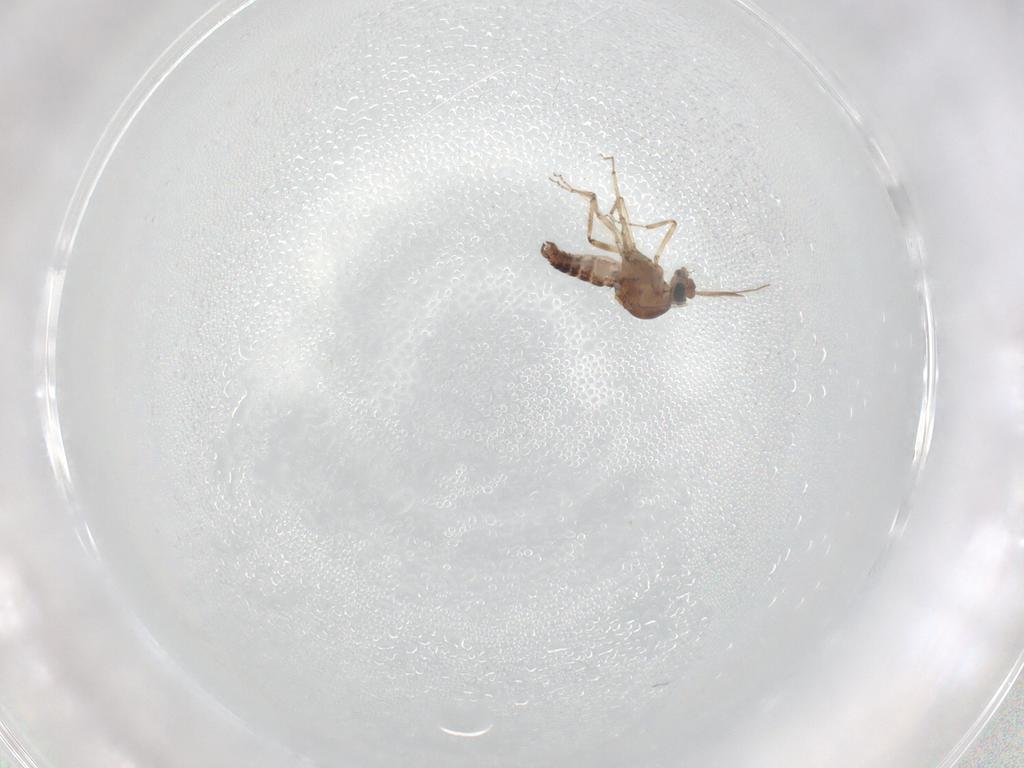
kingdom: Animalia
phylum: Arthropoda
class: Insecta
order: Diptera
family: Ceratopogonidae
